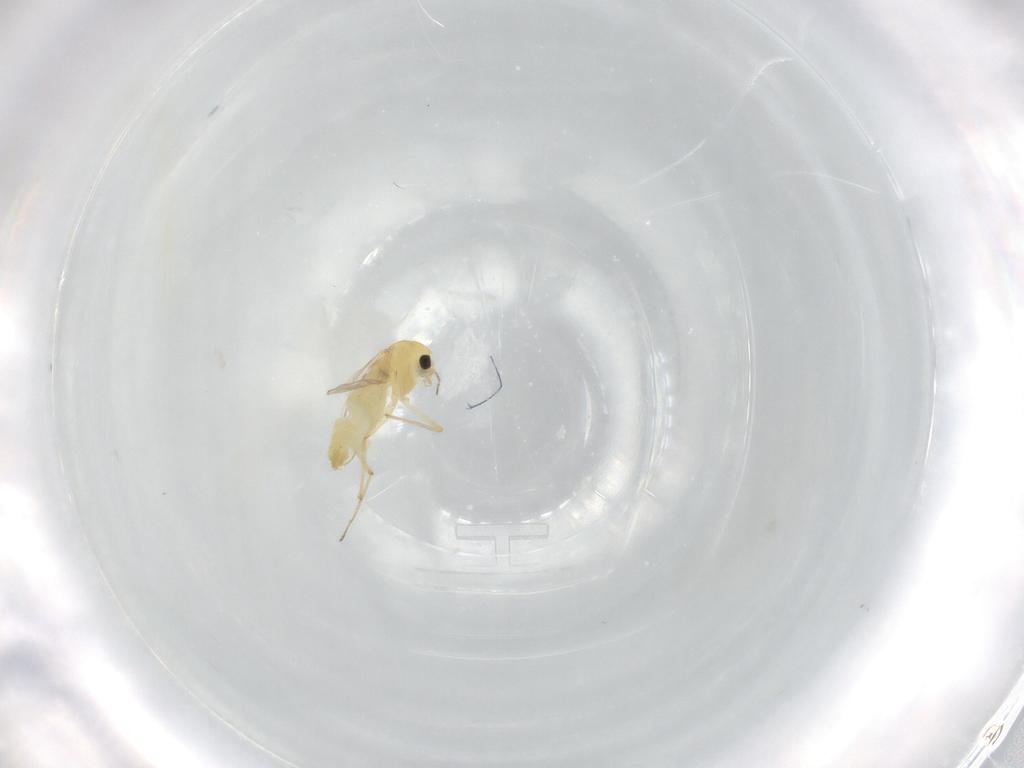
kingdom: Animalia
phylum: Arthropoda
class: Insecta
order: Diptera
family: Chironomidae
